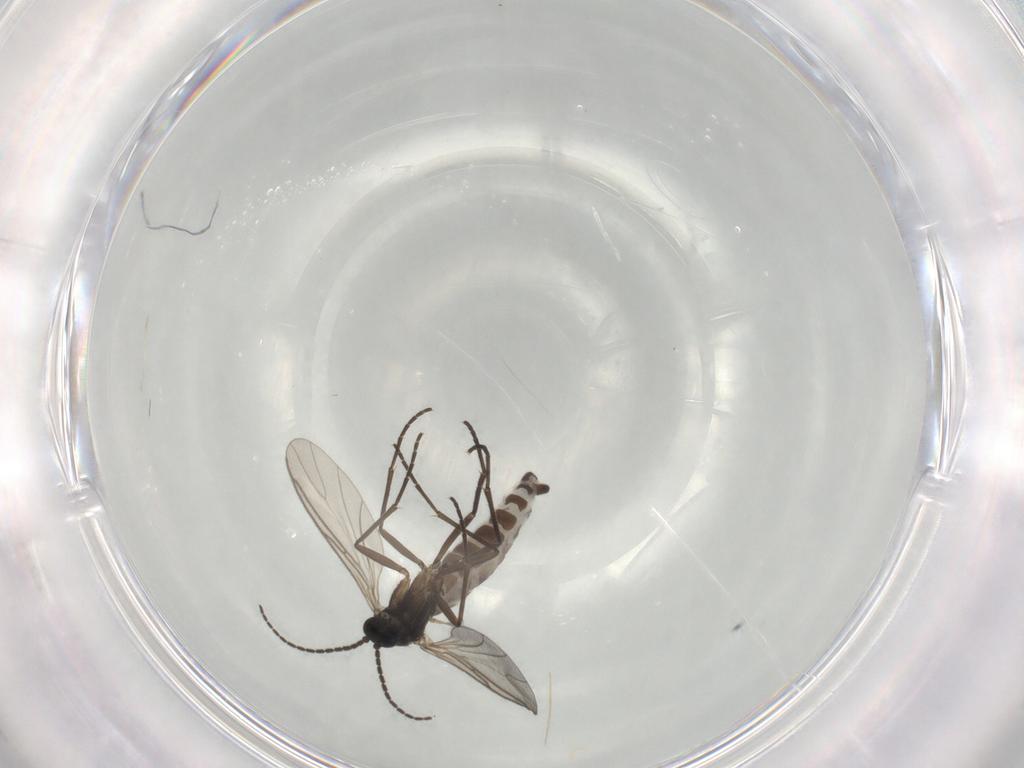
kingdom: Animalia
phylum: Arthropoda
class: Insecta
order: Diptera
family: Sciaridae
